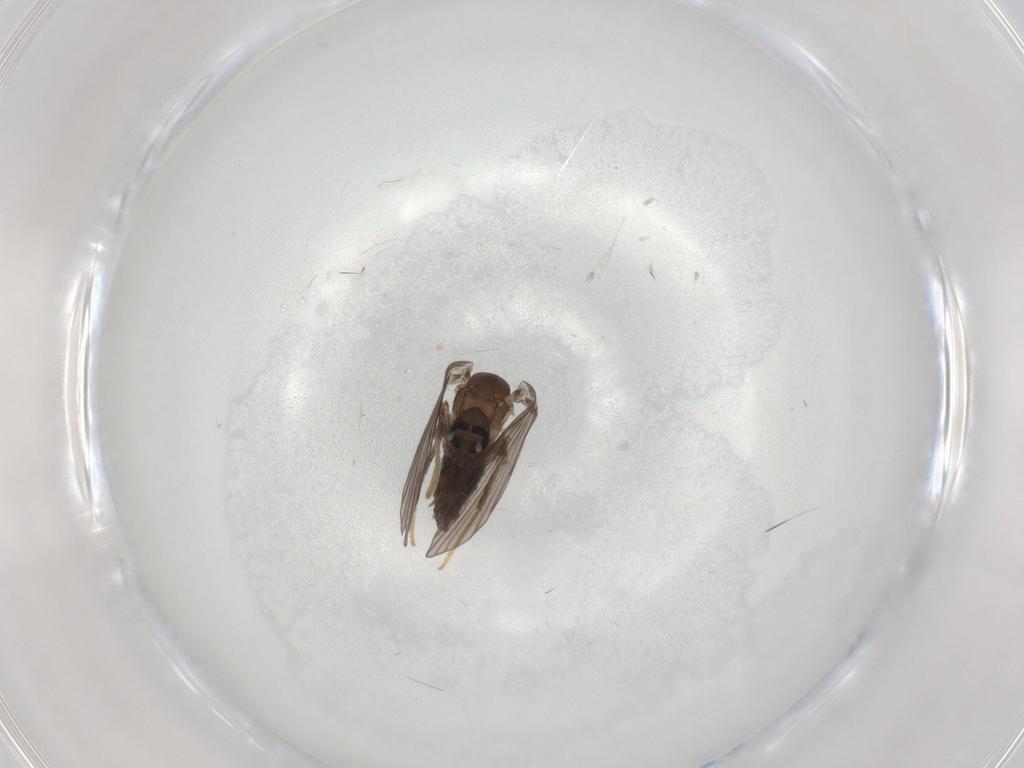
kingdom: Animalia
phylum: Arthropoda
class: Insecta
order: Diptera
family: Psychodidae
